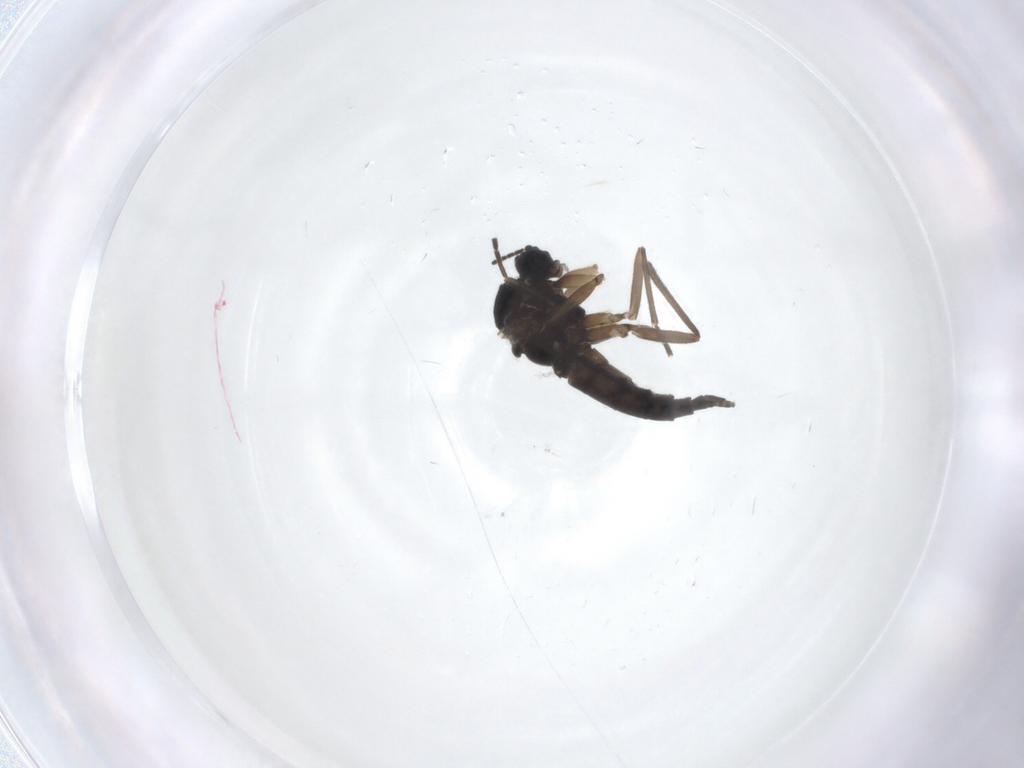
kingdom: Animalia
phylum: Arthropoda
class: Insecta
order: Diptera
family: Sciaridae
